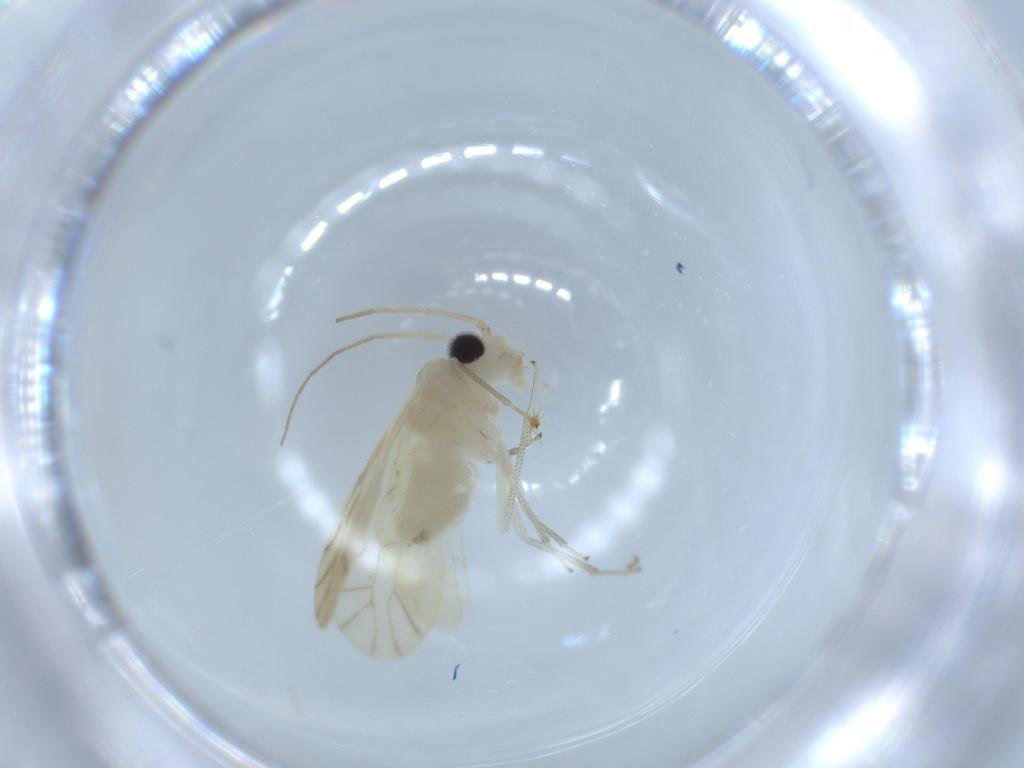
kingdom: Animalia
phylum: Arthropoda
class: Insecta
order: Psocodea
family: Caeciliusidae
